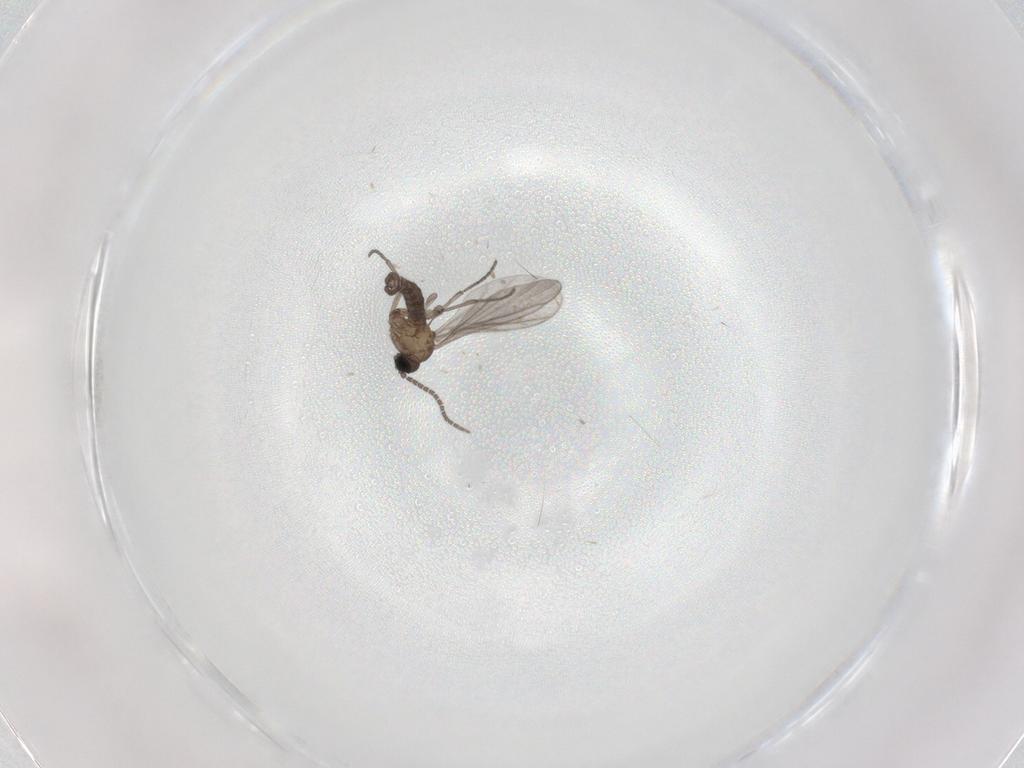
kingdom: Animalia
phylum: Arthropoda
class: Insecta
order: Diptera
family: Sciaridae
